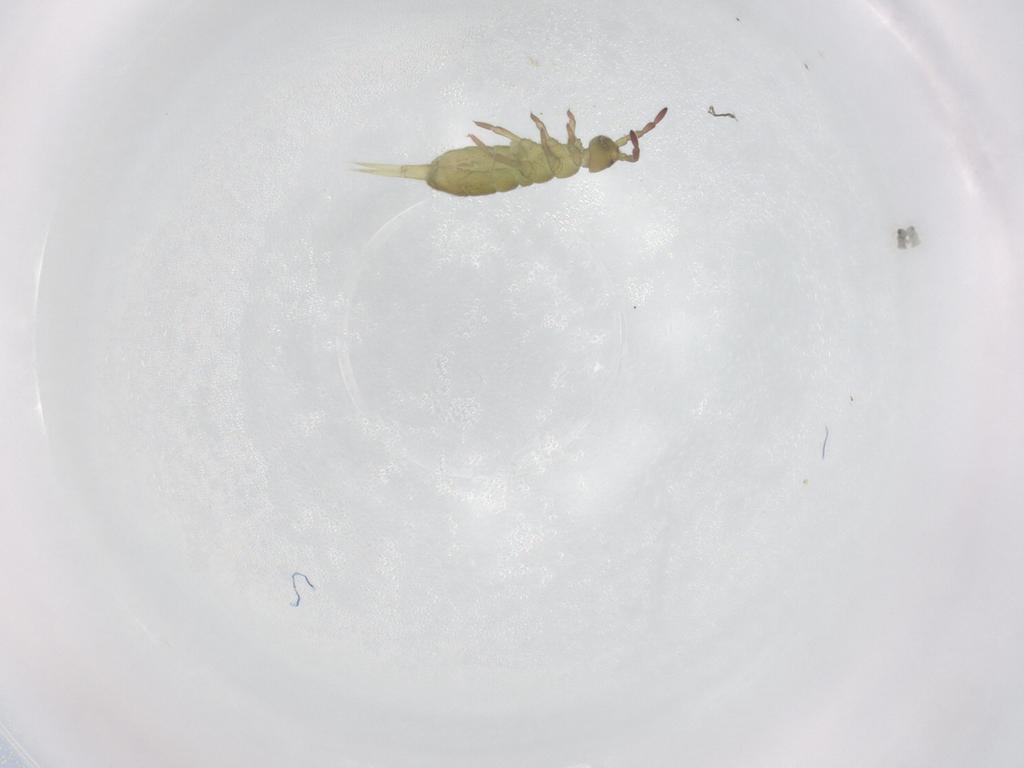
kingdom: Animalia
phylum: Arthropoda
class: Collembola
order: Entomobryomorpha
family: Isotomidae
